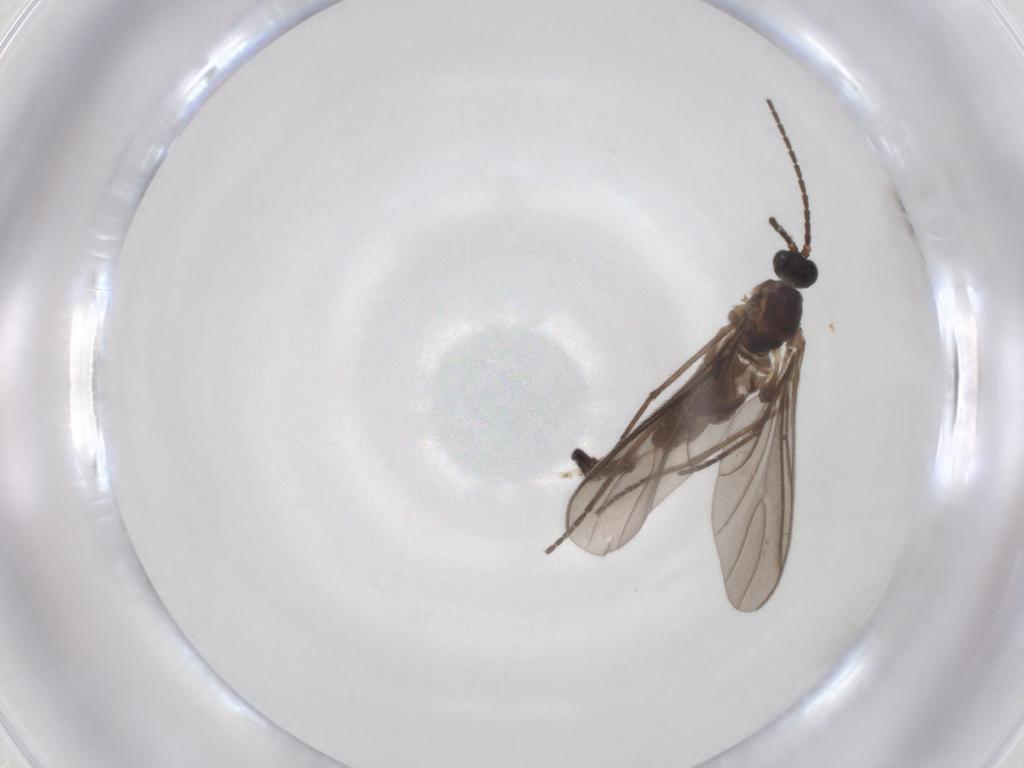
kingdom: Animalia
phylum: Arthropoda
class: Insecta
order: Diptera
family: Sciaridae
